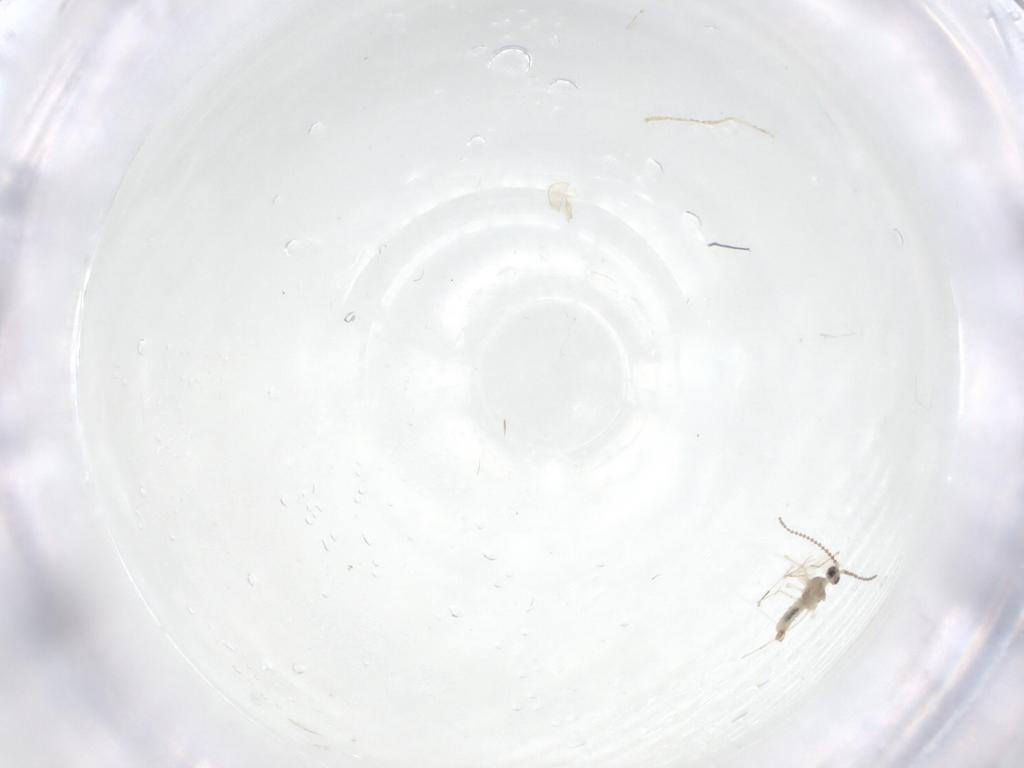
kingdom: Animalia
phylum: Arthropoda
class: Insecta
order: Diptera
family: Cecidomyiidae
